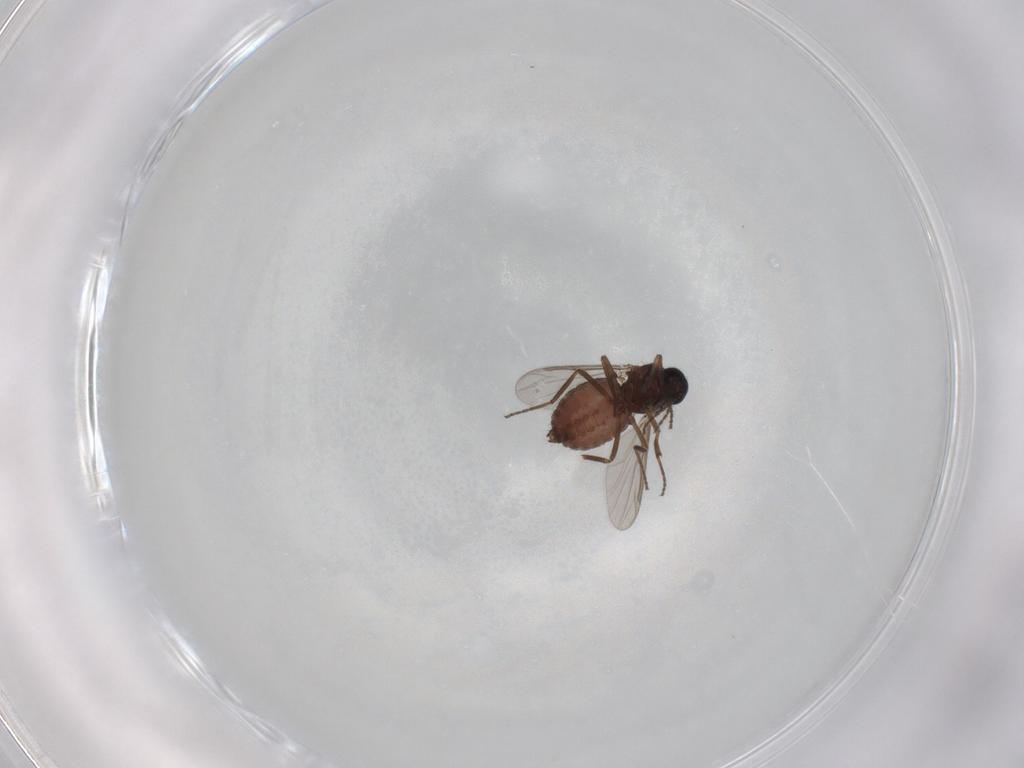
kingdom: Animalia
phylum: Arthropoda
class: Insecta
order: Diptera
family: Ceratopogonidae
